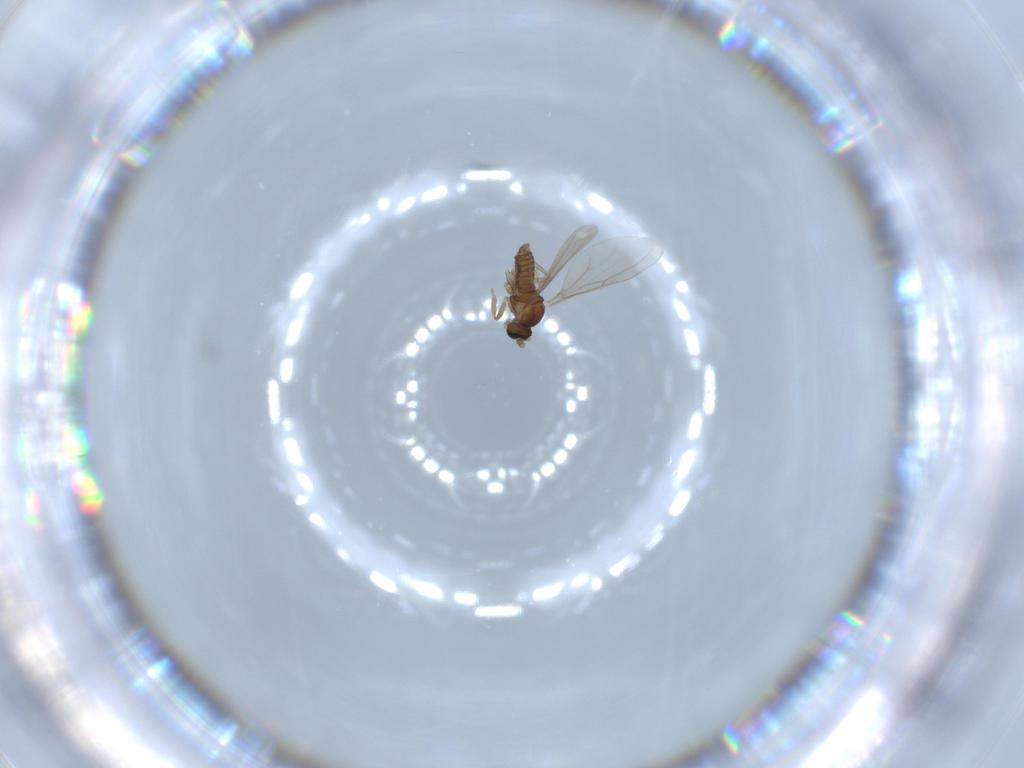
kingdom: Animalia
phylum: Arthropoda
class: Insecta
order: Diptera
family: Cecidomyiidae
